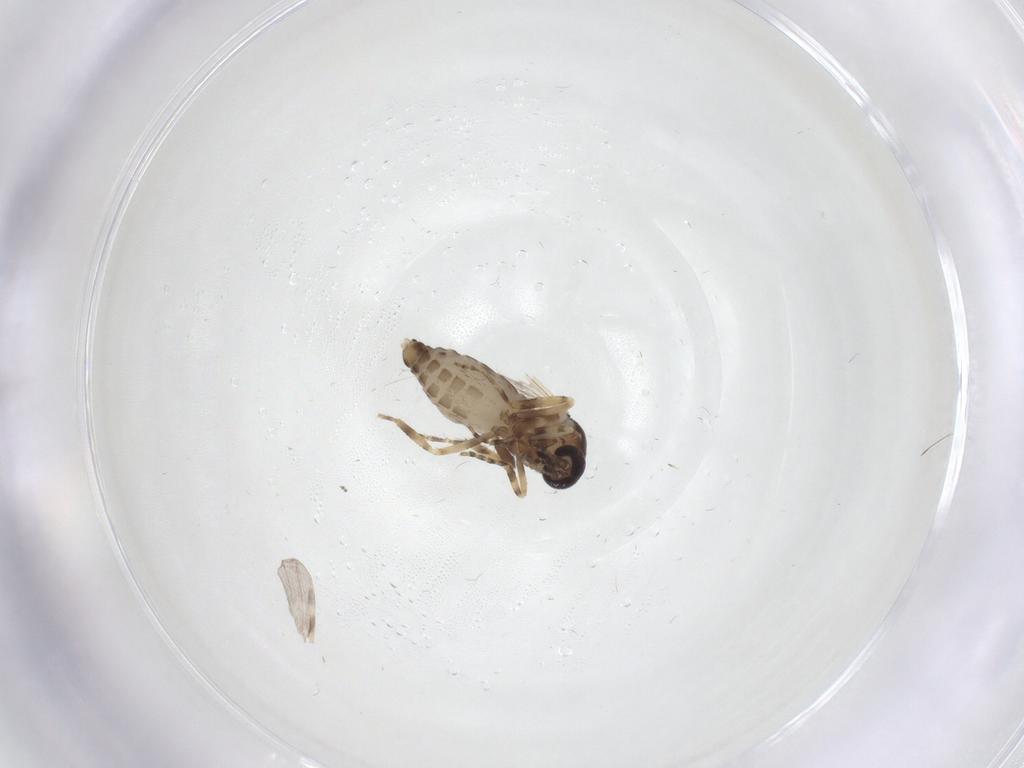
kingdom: Animalia
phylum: Arthropoda
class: Insecta
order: Diptera
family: Ceratopogonidae
